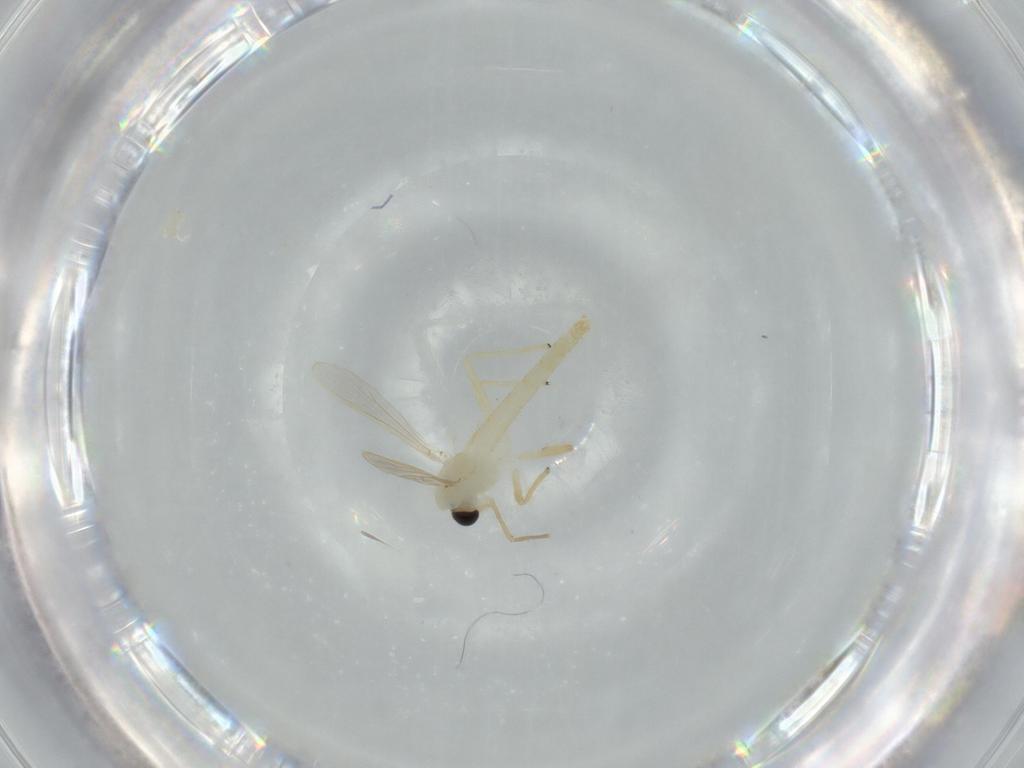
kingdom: Animalia
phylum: Arthropoda
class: Insecta
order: Diptera
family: Chironomidae
